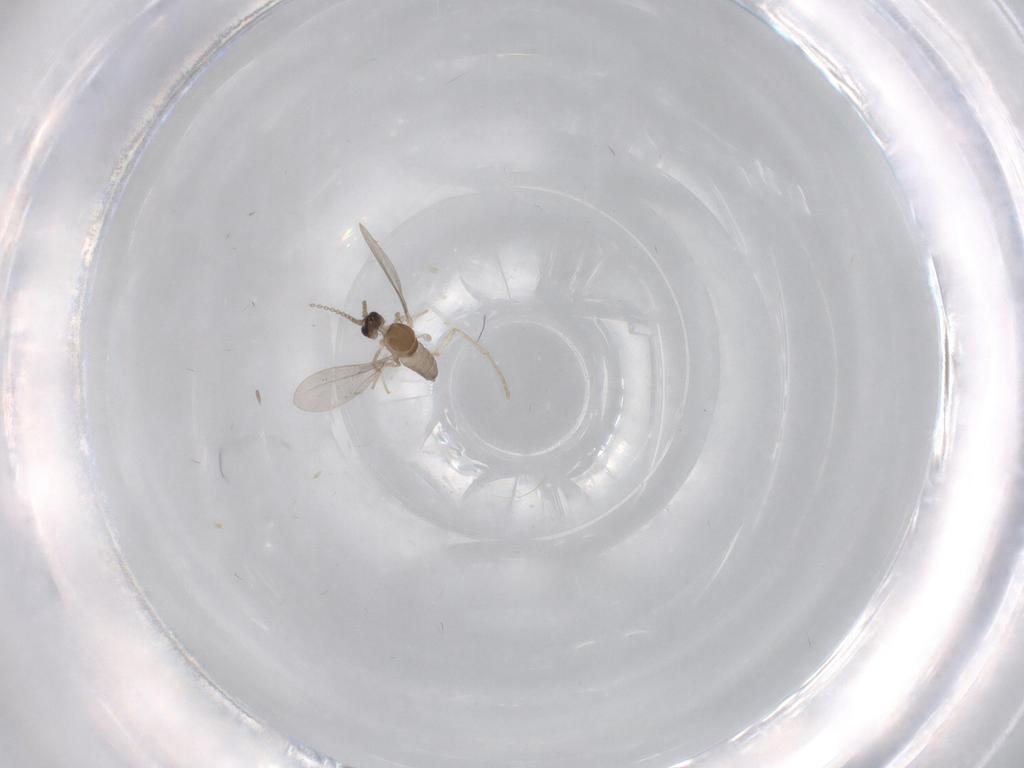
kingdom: Animalia
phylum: Arthropoda
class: Insecta
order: Diptera
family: Cecidomyiidae
